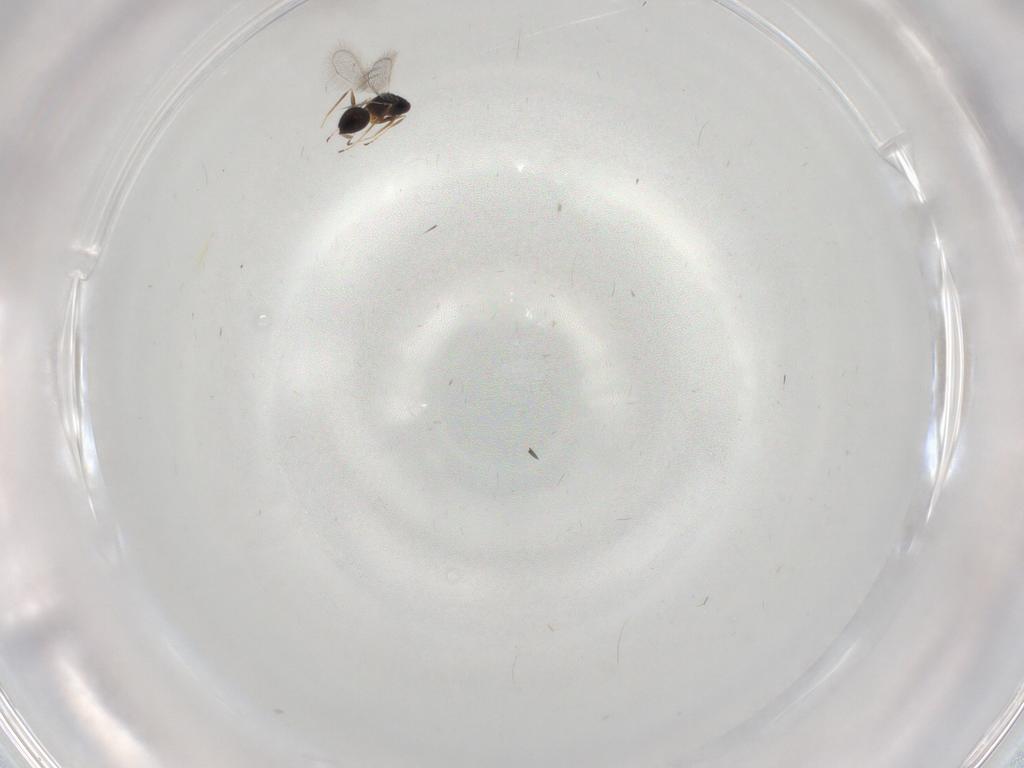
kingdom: Animalia
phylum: Arthropoda
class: Insecta
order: Hymenoptera
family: Mymaridae
